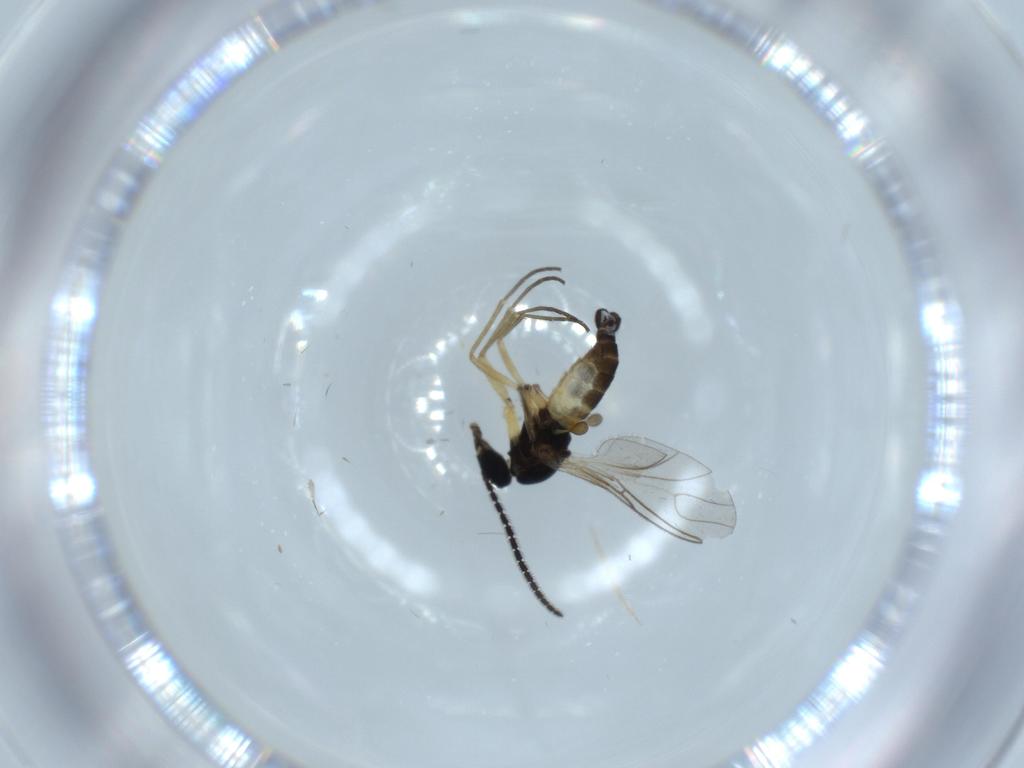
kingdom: Animalia
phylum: Arthropoda
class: Insecta
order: Diptera
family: Sciaridae
